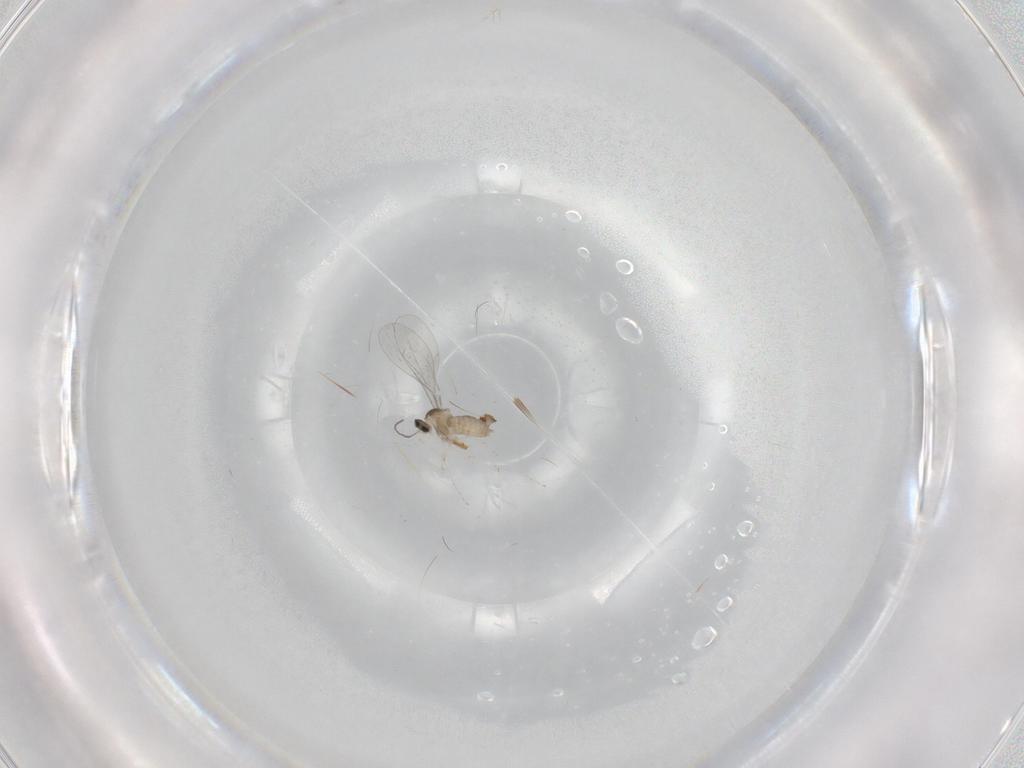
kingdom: Animalia
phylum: Arthropoda
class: Insecta
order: Diptera
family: Cecidomyiidae
